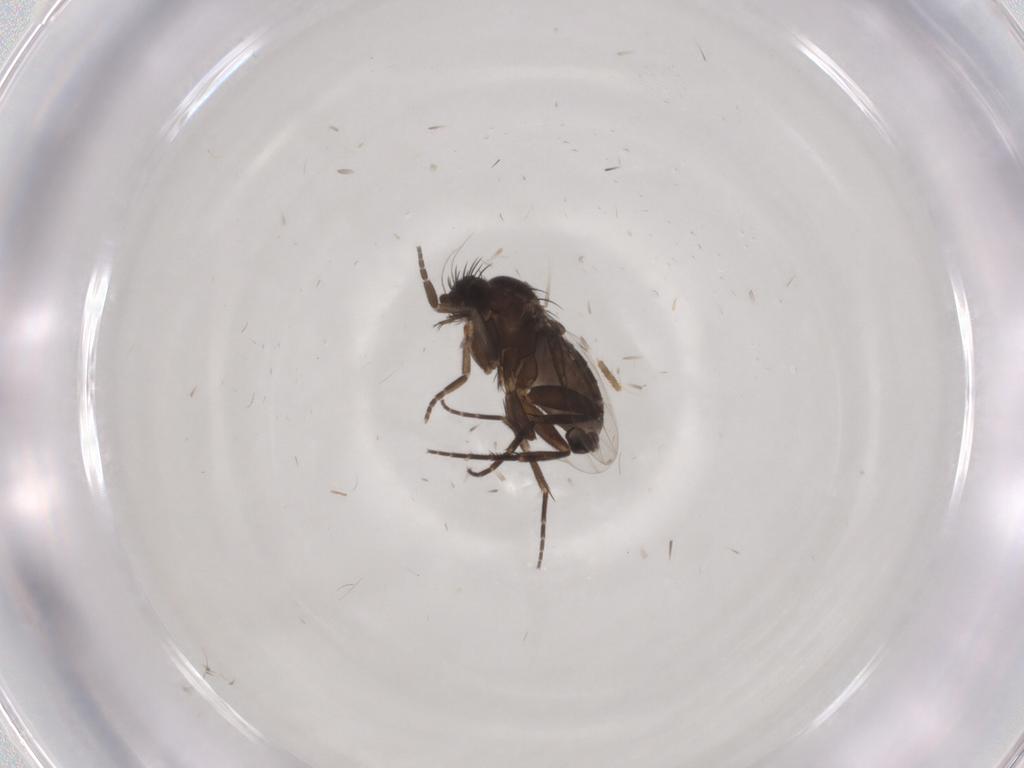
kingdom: Animalia
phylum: Arthropoda
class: Insecta
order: Diptera
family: Phoridae
